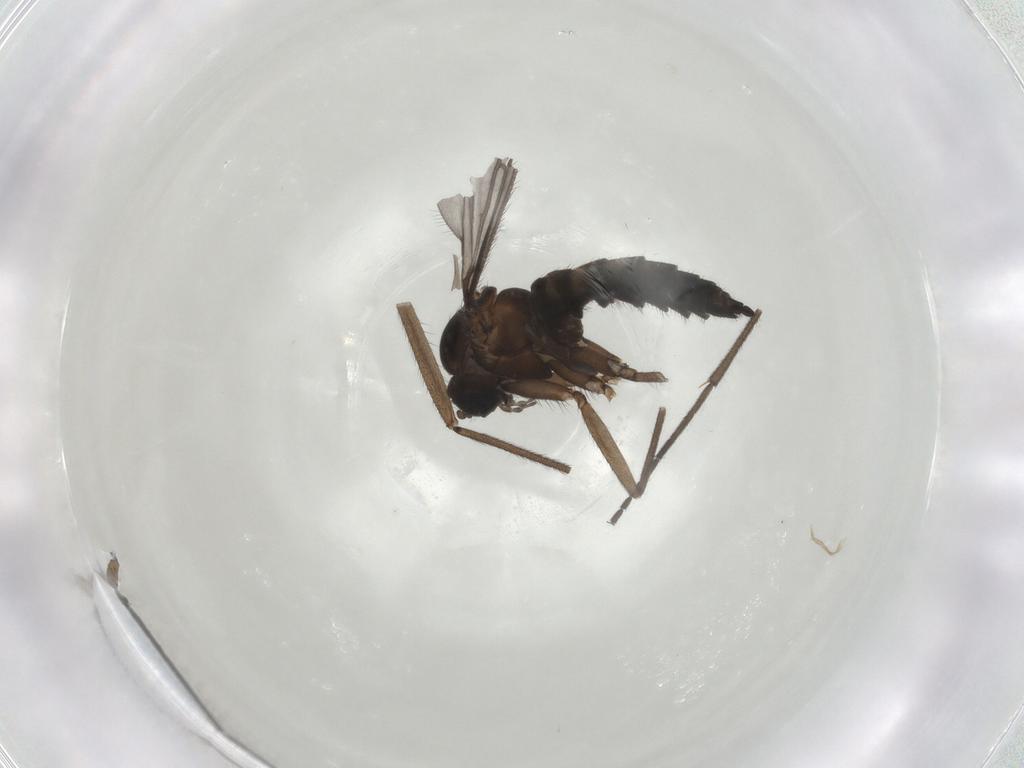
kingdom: Animalia
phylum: Arthropoda
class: Insecta
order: Diptera
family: Sciaridae
